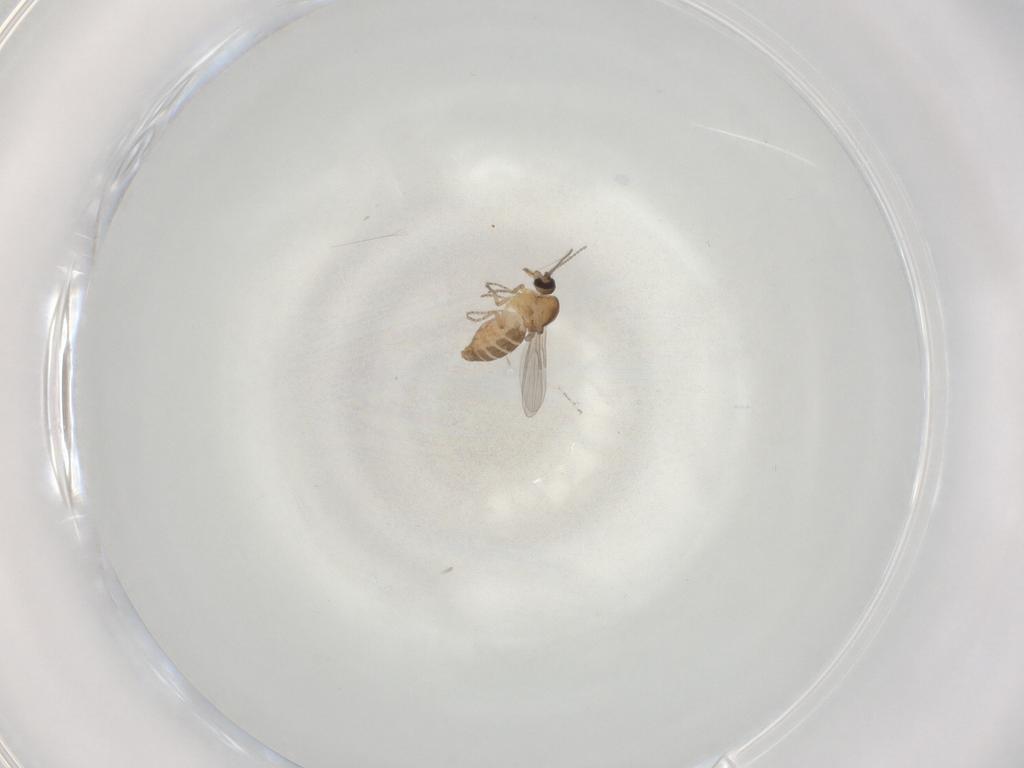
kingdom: Animalia
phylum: Arthropoda
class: Insecta
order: Diptera
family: Ceratopogonidae
